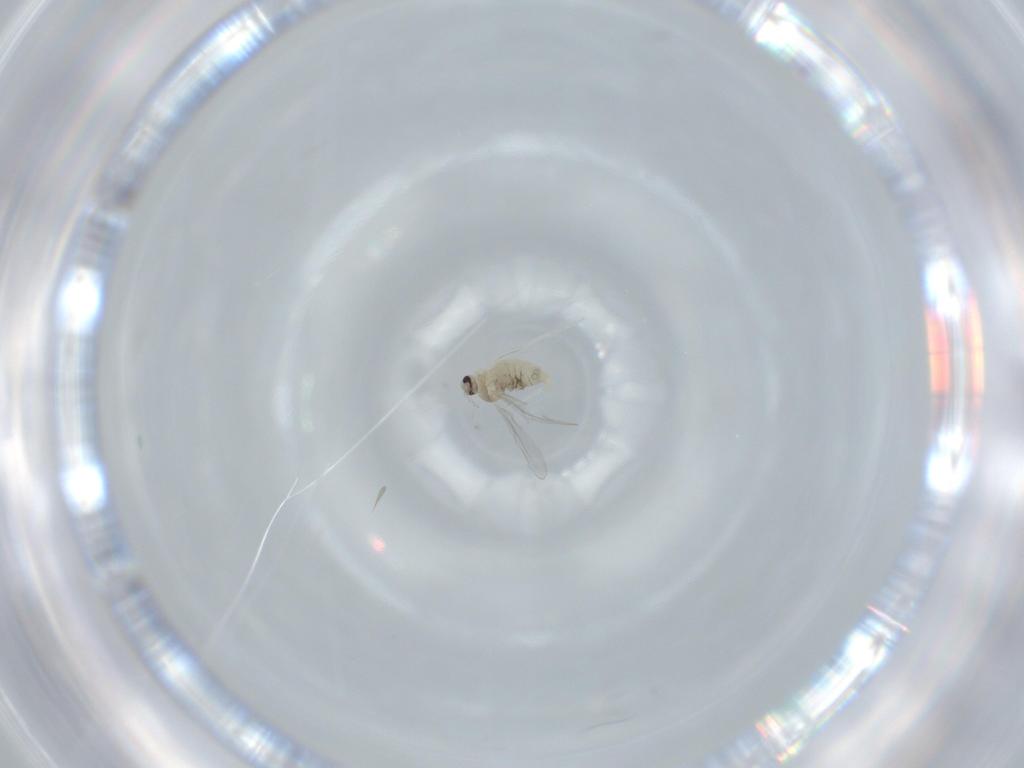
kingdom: Animalia
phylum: Arthropoda
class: Insecta
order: Diptera
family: Cecidomyiidae
